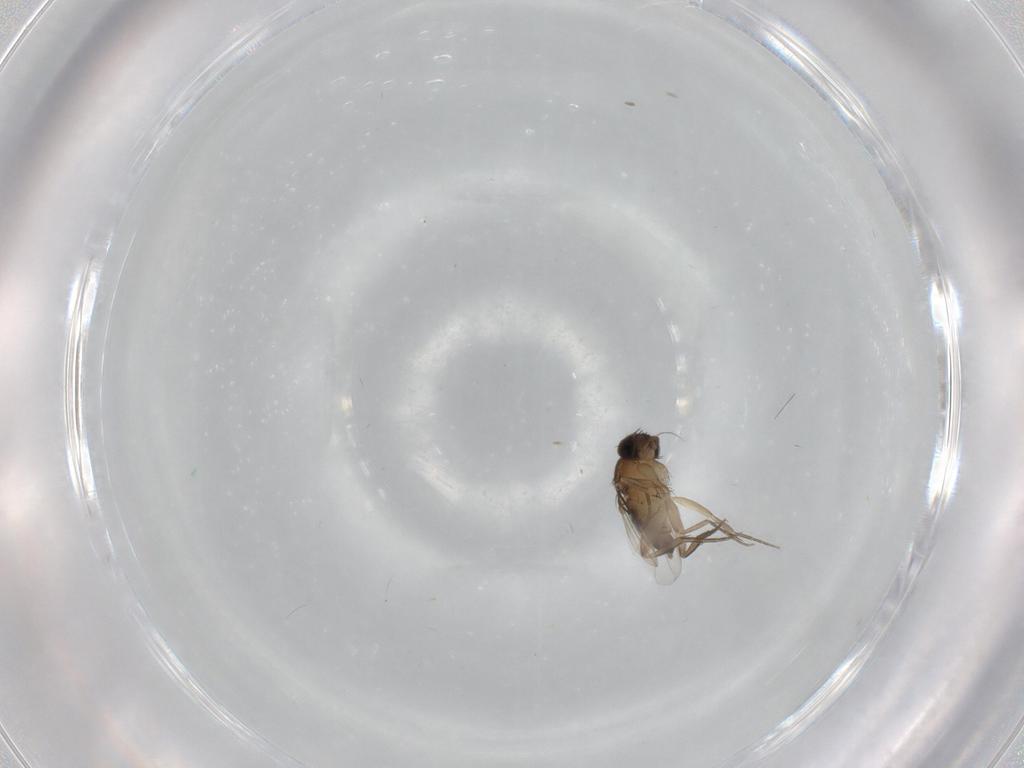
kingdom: Animalia
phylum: Arthropoda
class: Insecta
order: Diptera
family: Phoridae
